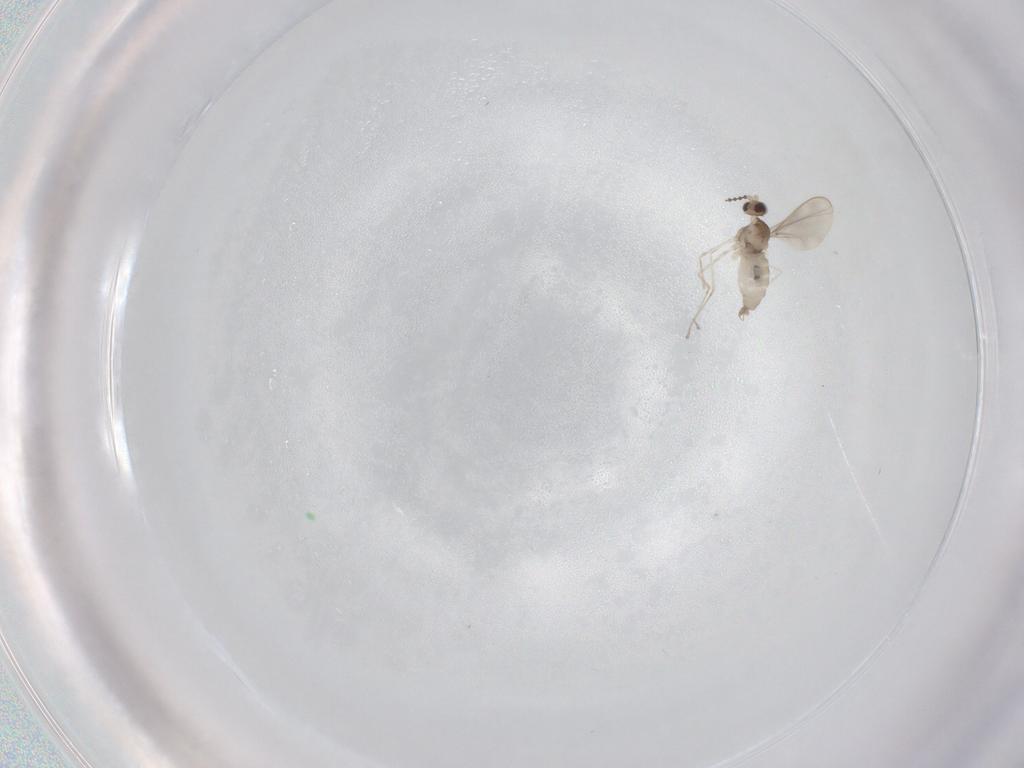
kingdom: Animalia
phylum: Arthropoda
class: Insecta
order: Diptera
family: Cecidomyiidae
